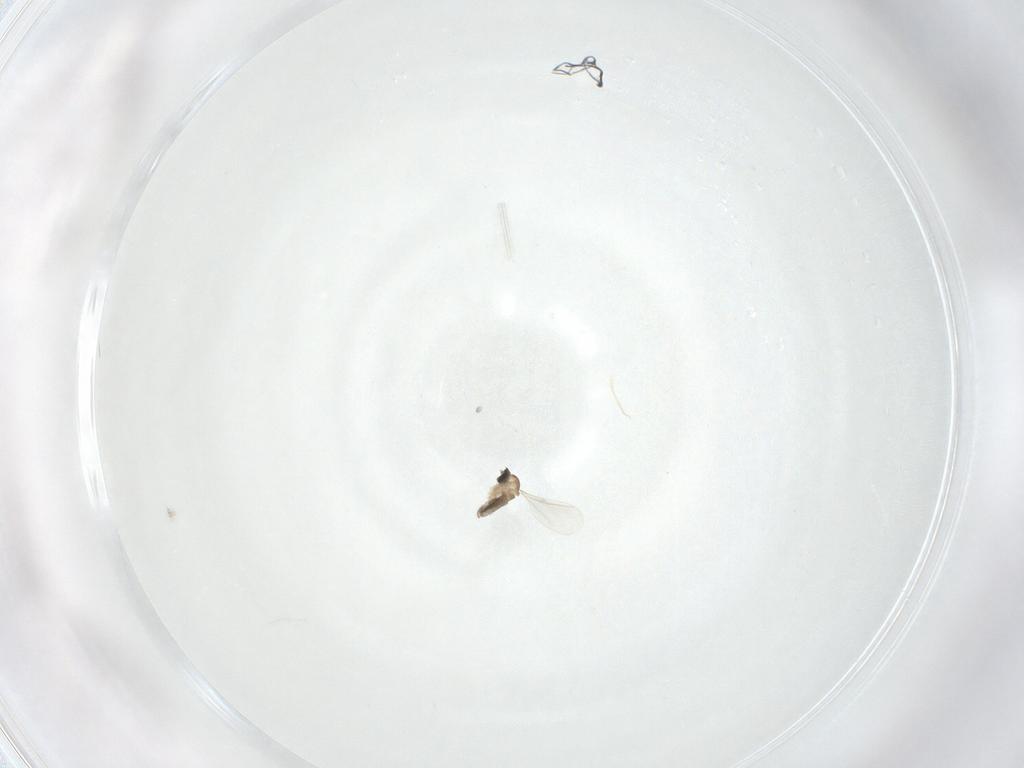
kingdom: Animalia
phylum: Arthropoda
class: Insecta
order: Diptera
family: Cecidomyiidae
